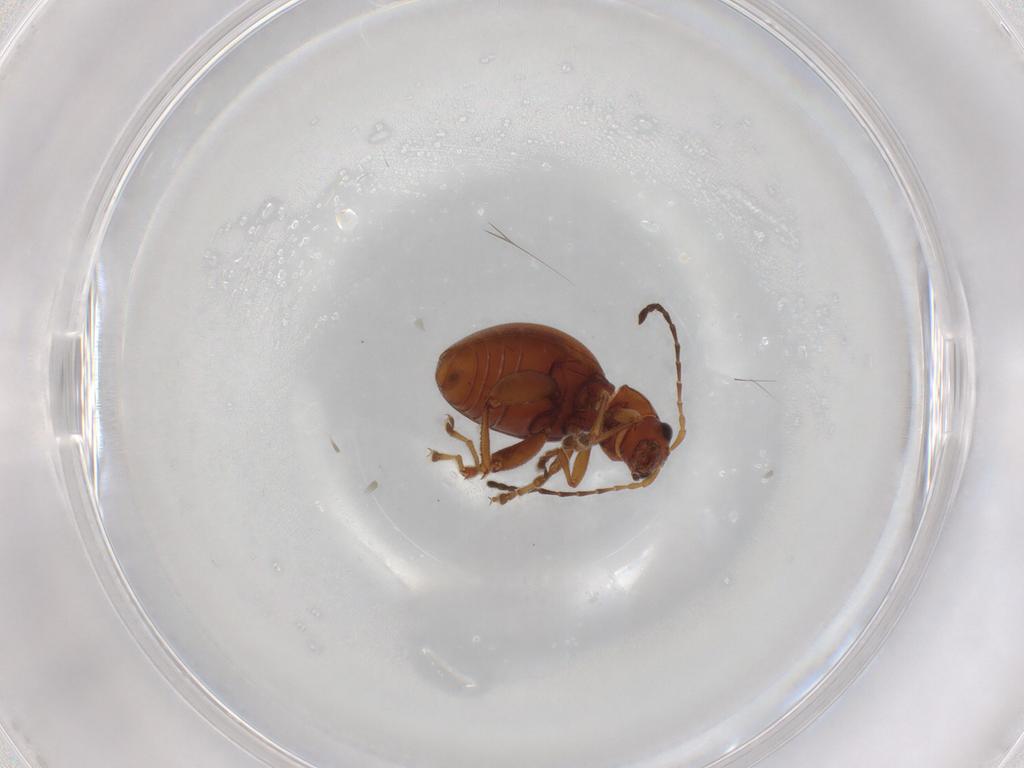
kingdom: Animalia
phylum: Arthropoda
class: Insecta
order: Coleoptera
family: Chrysomelidae
